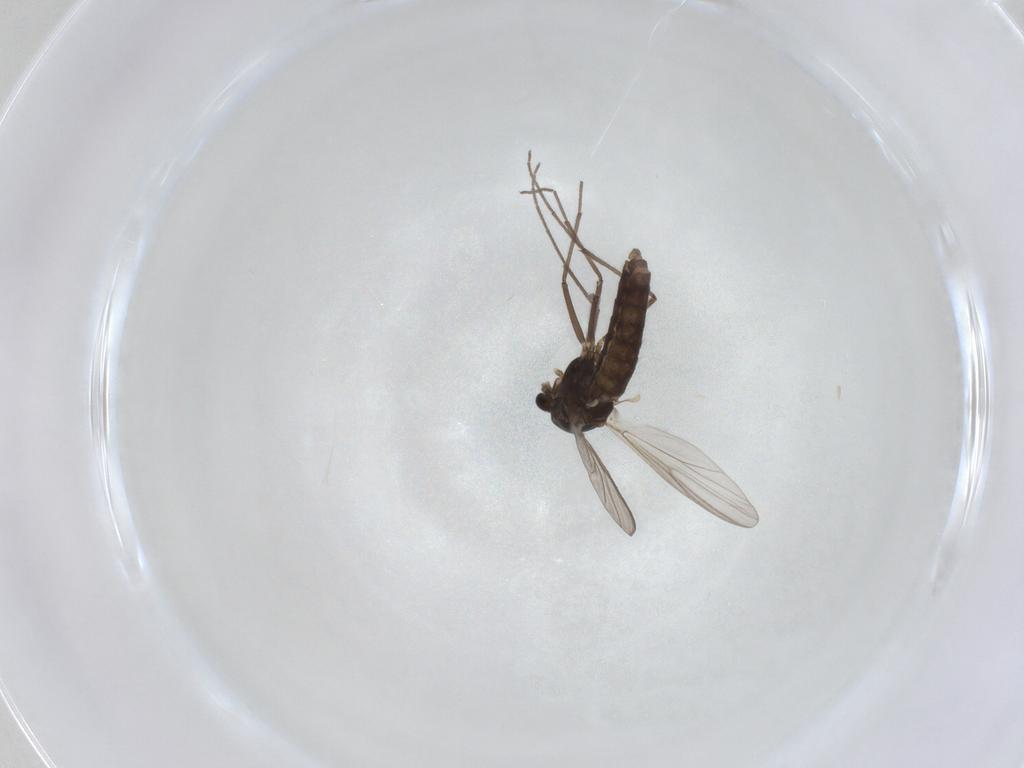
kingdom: Animalia
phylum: Arthropoda
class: Insecta
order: Diptera
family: Chironomidae
